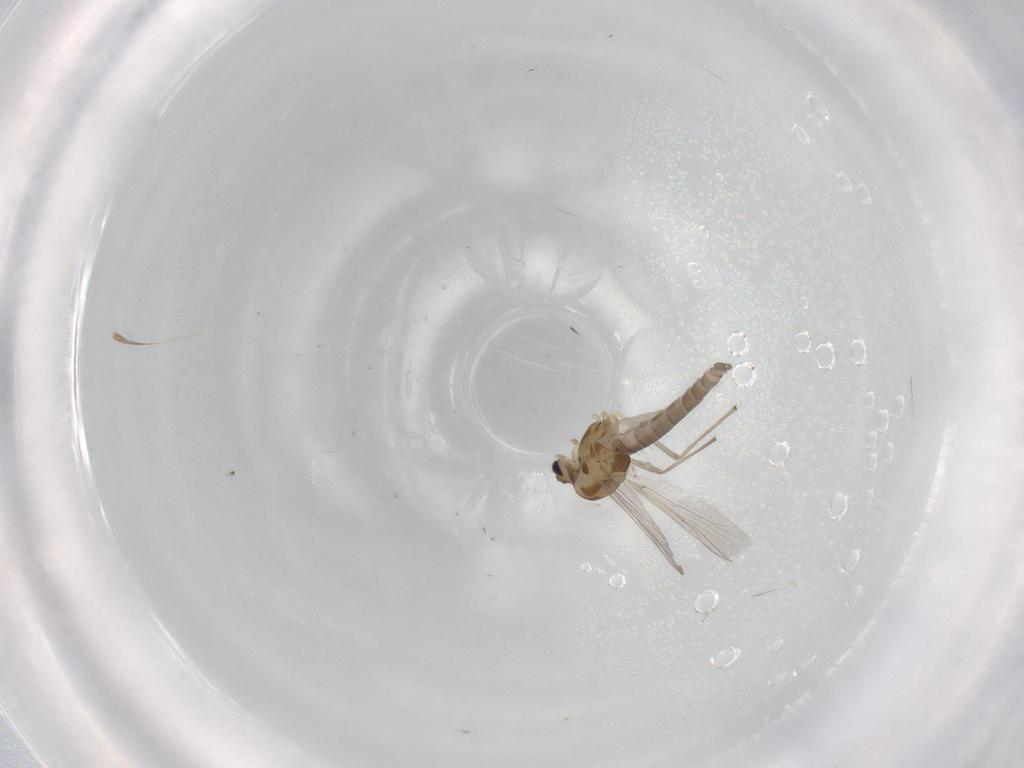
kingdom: Animalia
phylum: Arthropoda
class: Insecta
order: Diptera
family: Chironomidae
